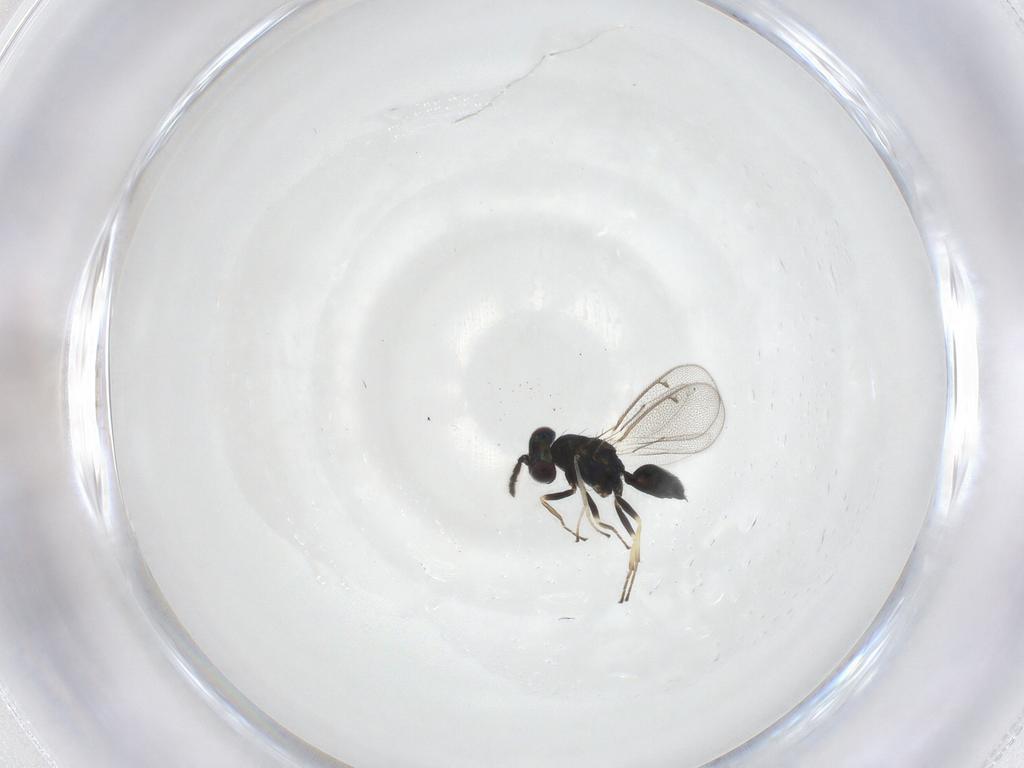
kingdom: Animalia
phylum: Arthropoda
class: Insecta
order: Hymenoptera
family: Eulophidae
